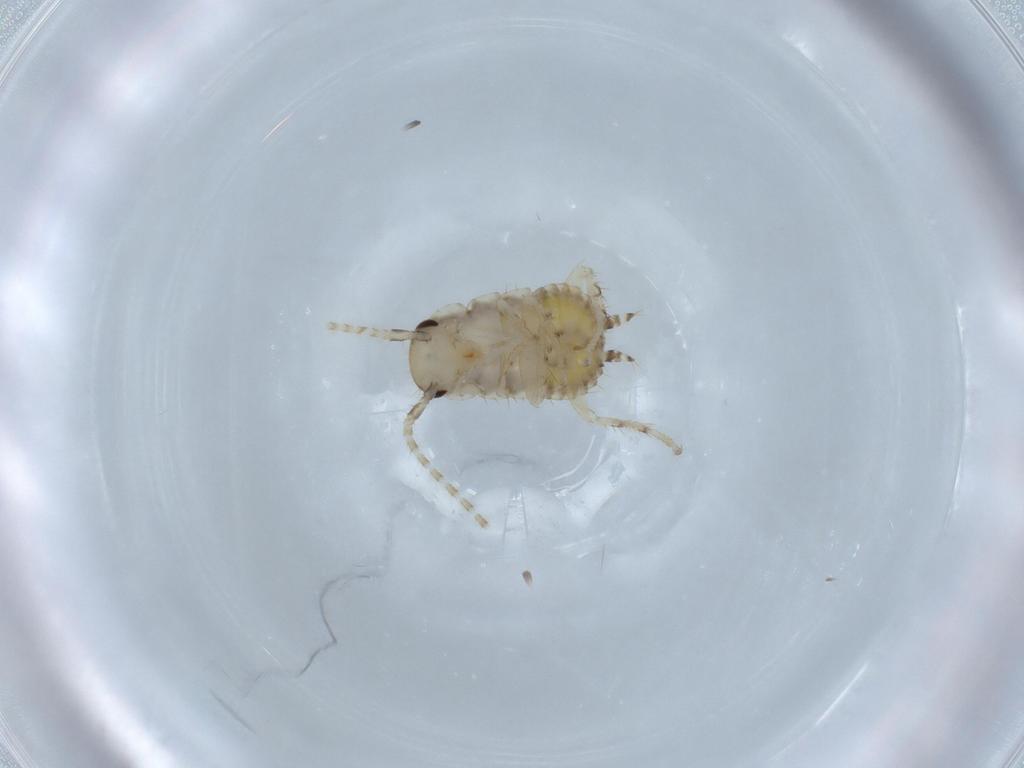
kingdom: Animalia
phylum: Arthropoda
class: Insecta
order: Blattodea
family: Ectobiidae
